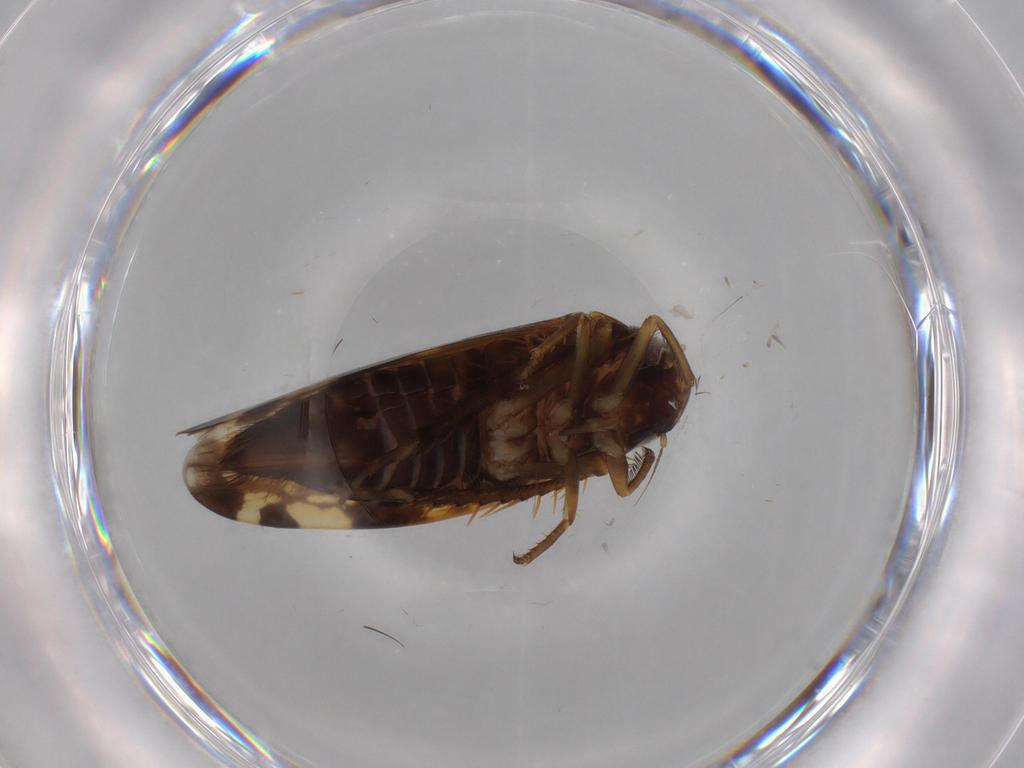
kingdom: Animalia
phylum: Arthropoda
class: Insecta
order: Hemiptera
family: Cicadellidae
